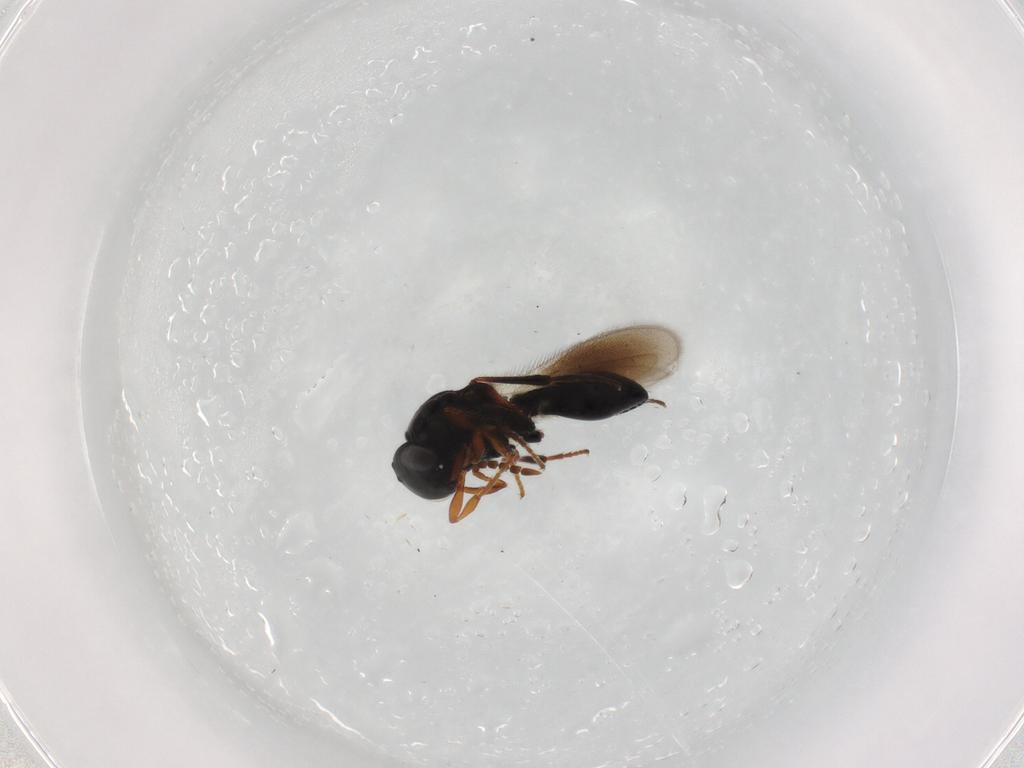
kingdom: Animalia
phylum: Arthropoda
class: Insecta
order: Hymenoptera
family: Platygastridae
